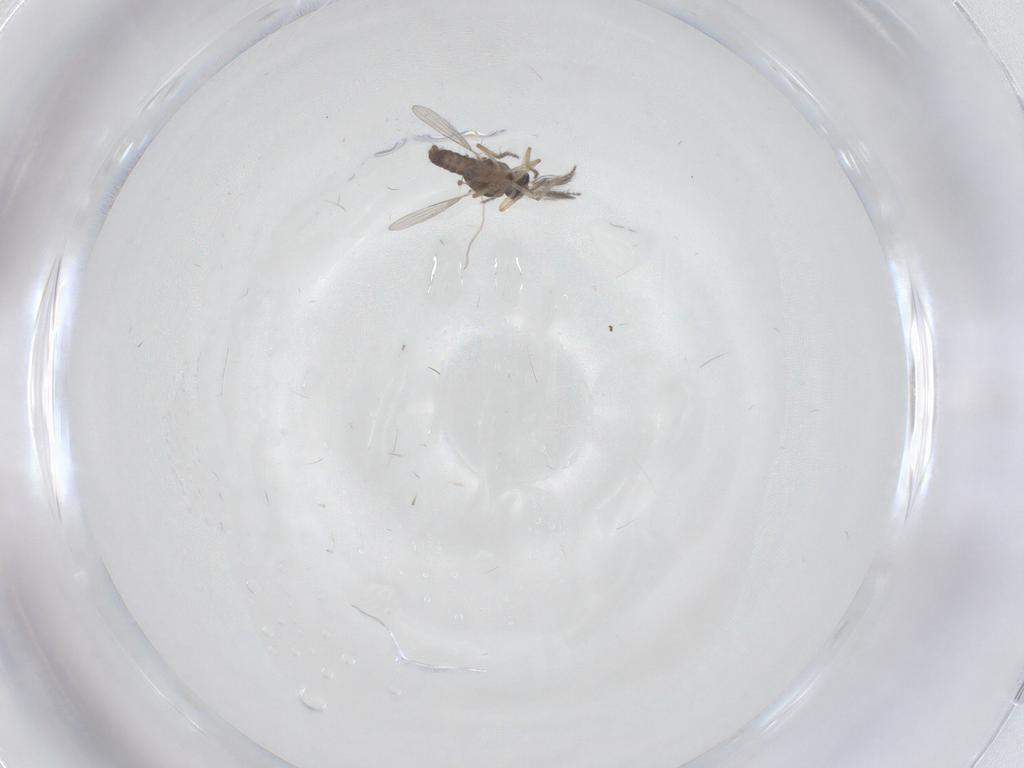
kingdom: Animalia
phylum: Arthropoda
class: Insecta
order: Diptera
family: Ceratopogonidae
